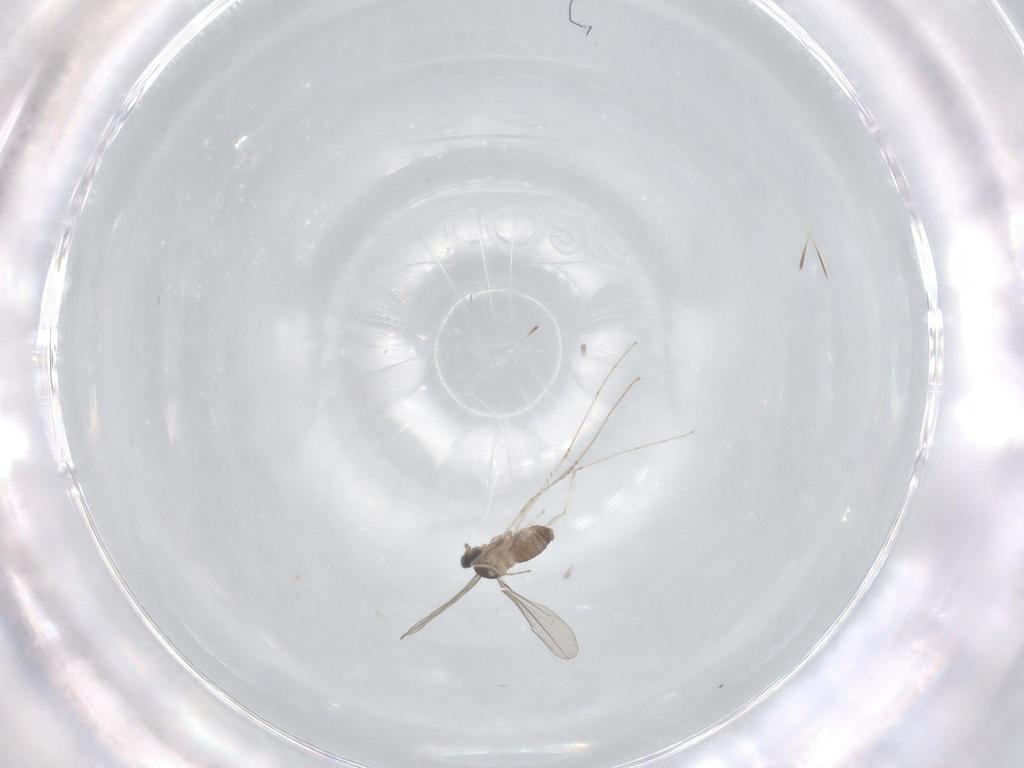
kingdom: Animalia
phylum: Arthropoda
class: Insecta
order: Diptera
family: Cecidomyiidae
